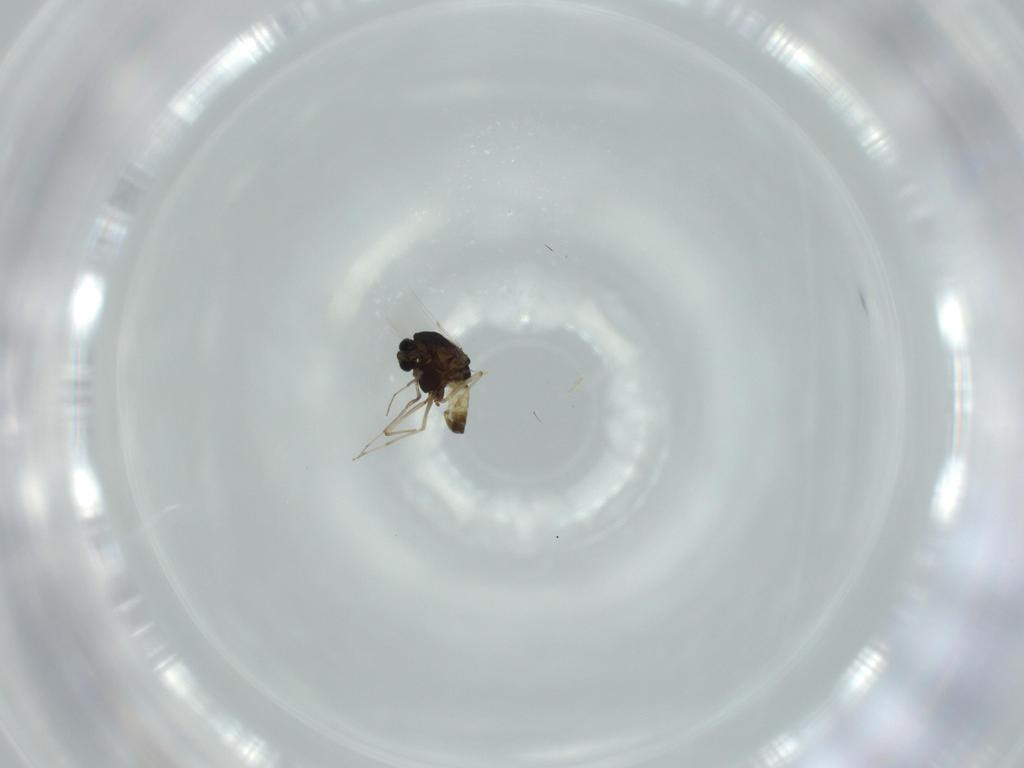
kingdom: Animalia
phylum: Arthropoda
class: Insecta
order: Diptera
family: Chironomidae
